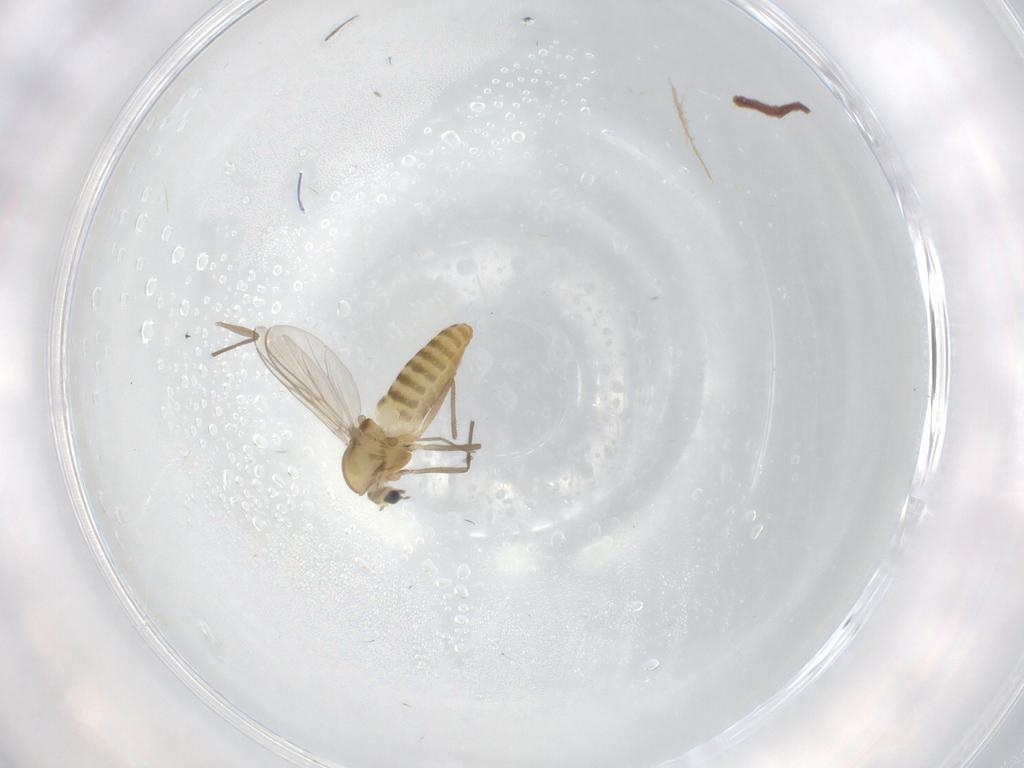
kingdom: Animalia
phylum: Arthropoda
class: Insecta
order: Diptera
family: Chironomidae
